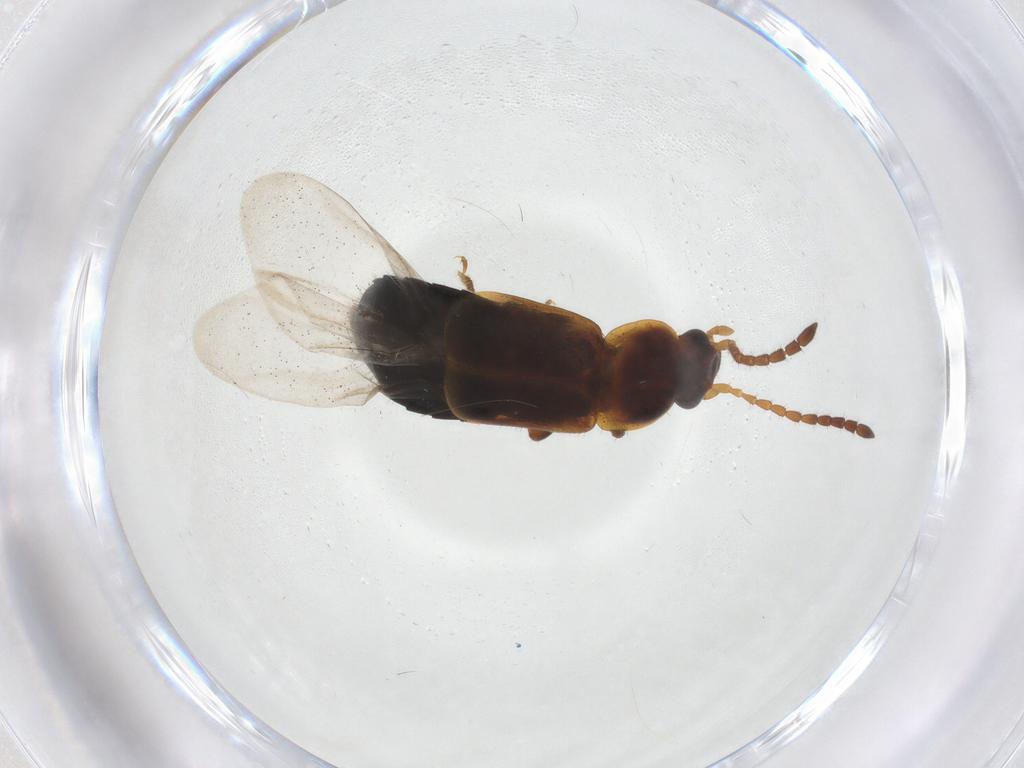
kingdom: Animalia
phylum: Arthropoda
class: Insecta
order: Coleoptera
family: Staphylinidae
